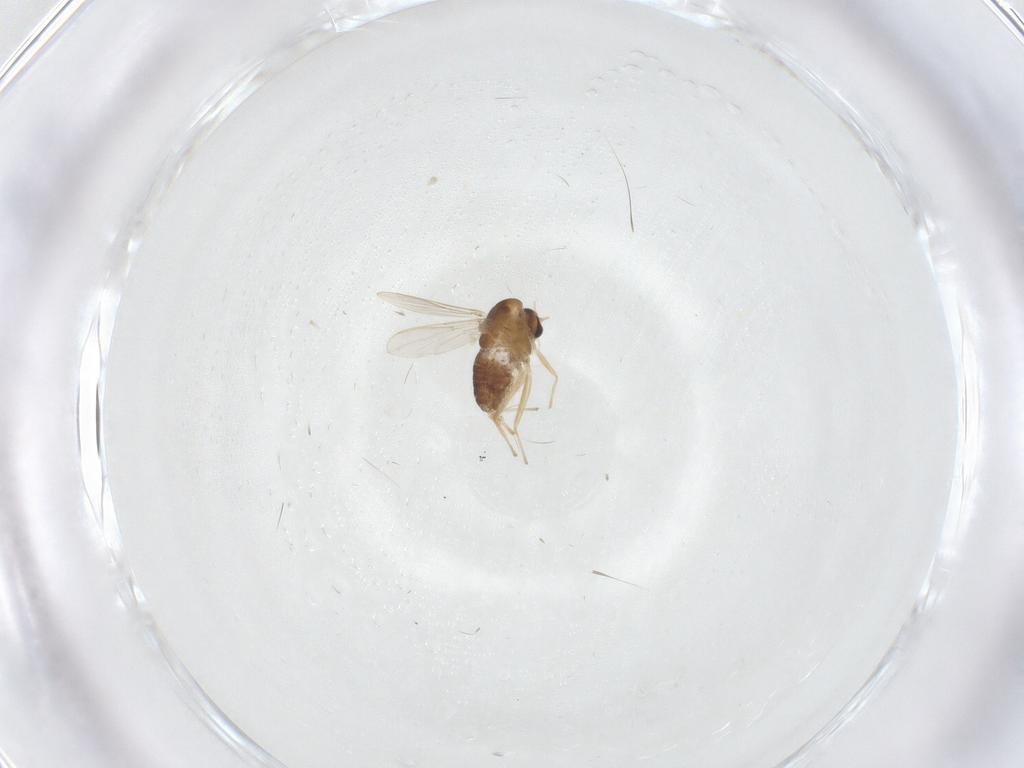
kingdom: Animalia
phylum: Arthropoda
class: Insecta
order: Diptera
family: Chironomidae
